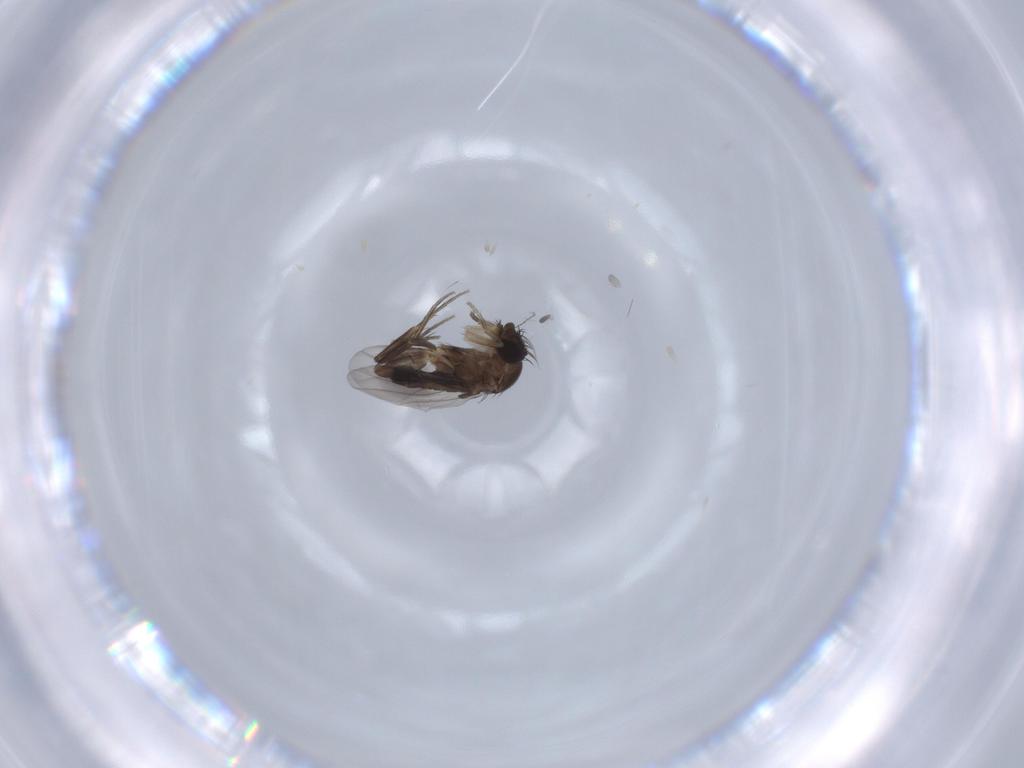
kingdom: Animalia
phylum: Arthropoda
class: Insecta
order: Diptera
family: Phoridae
